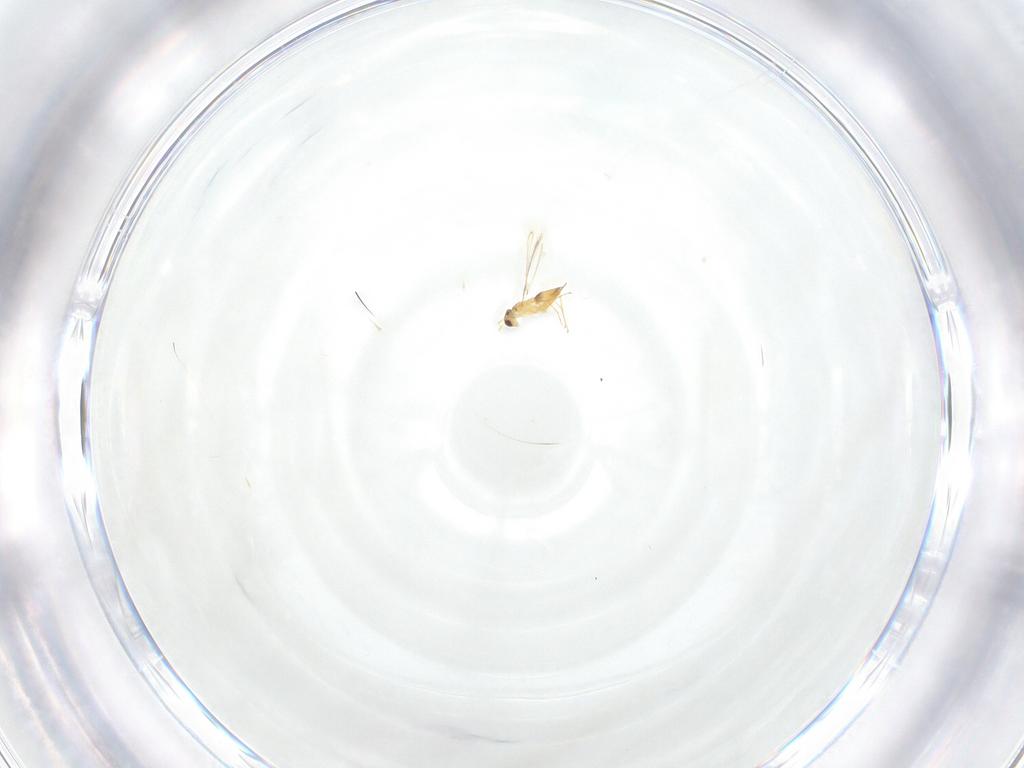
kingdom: Animalia
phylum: Arthropoda
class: Insecta
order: Hymenoptera
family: Mymaridae
